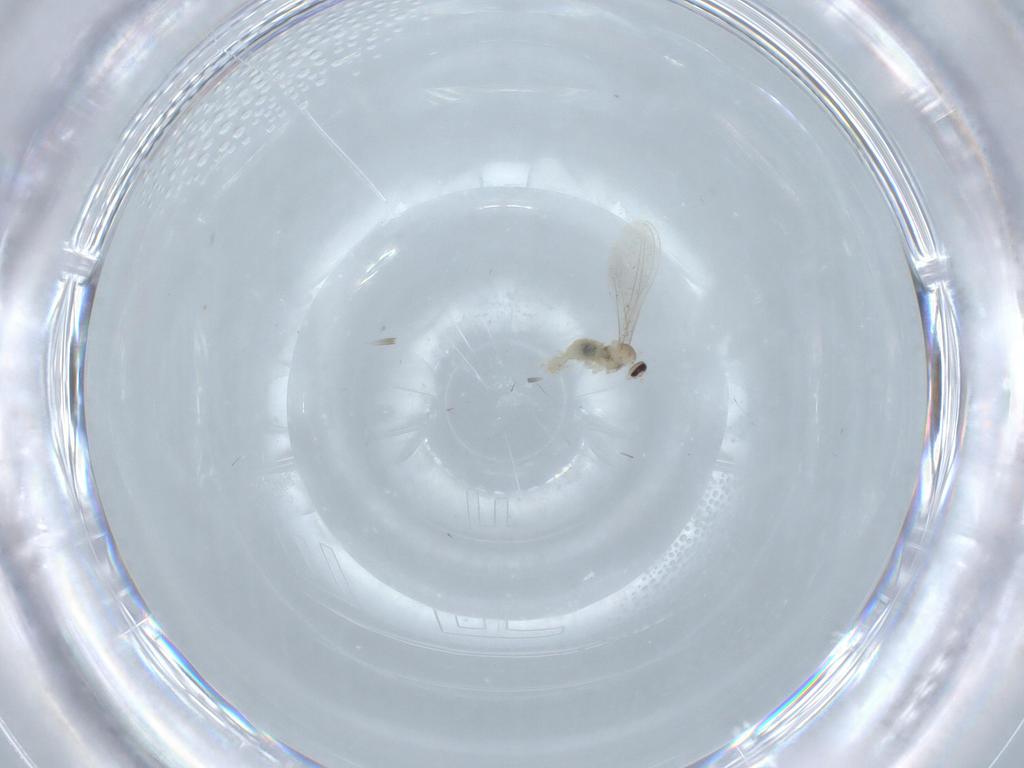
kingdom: Animalia
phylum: Arthropoda
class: Insecta
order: Diptera
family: Cecidomyiidae
